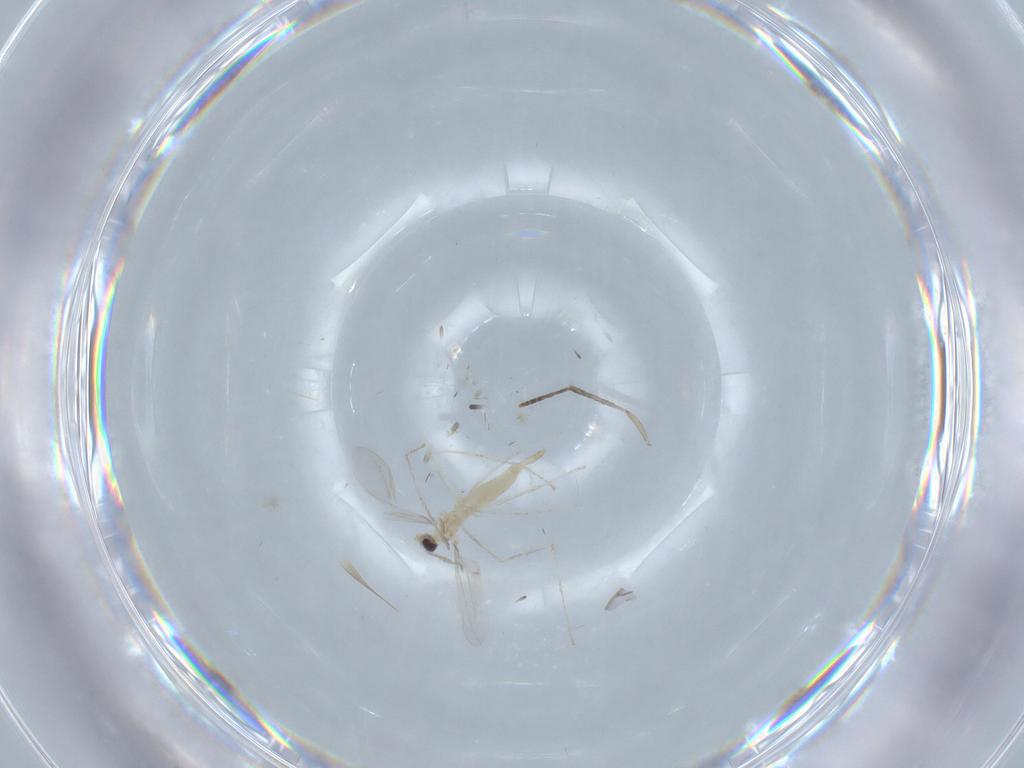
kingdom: Animalia
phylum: Arthropoda
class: Insecta
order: Diptera
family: Cecidomyiidae
